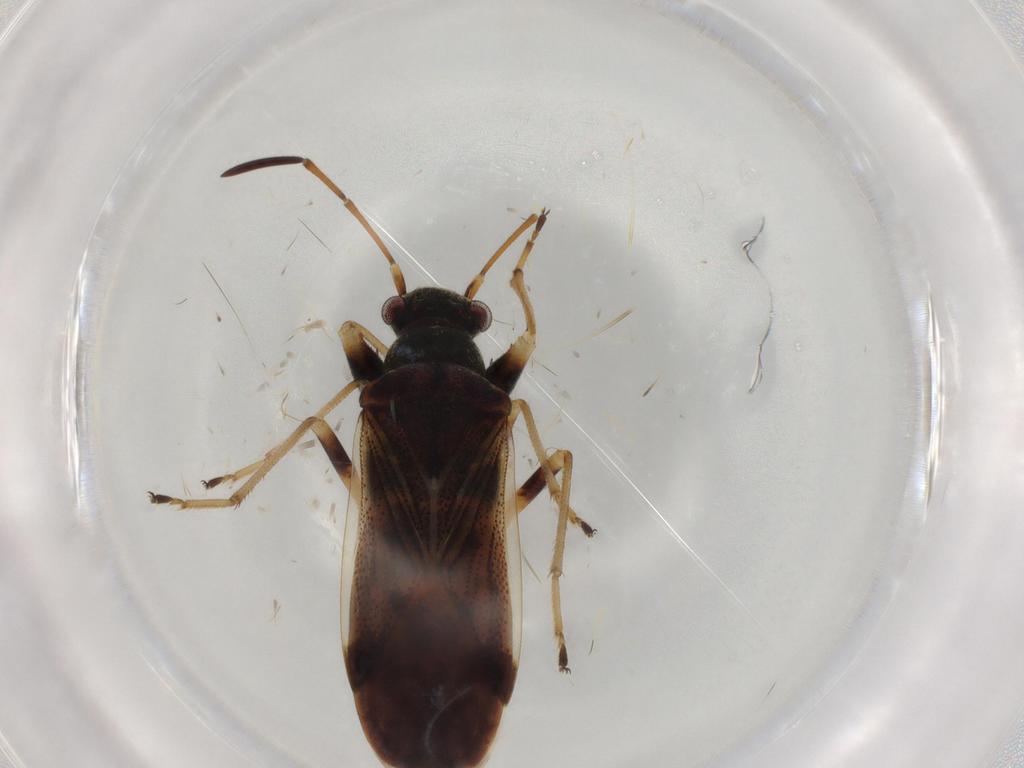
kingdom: Animalia
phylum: Arthropoda
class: Insecta
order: Hemiptera
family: Rhyparochromidae
